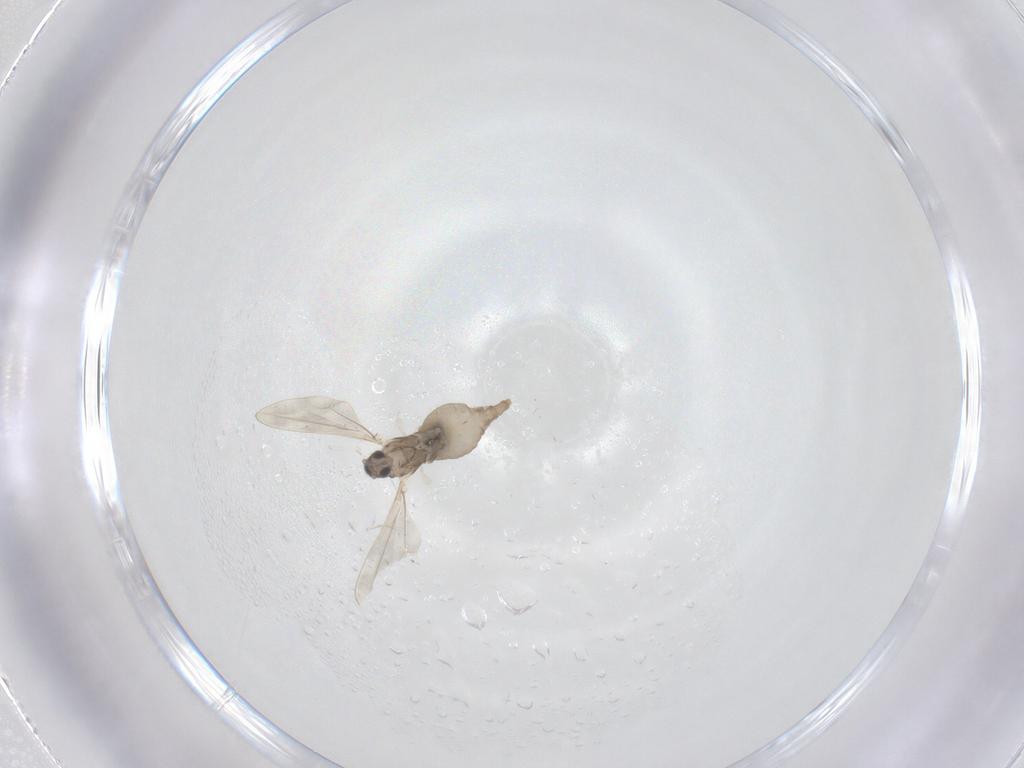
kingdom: Animalia
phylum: Arthropoda
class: Insecta
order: Diptera
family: Cecidomyiidae
